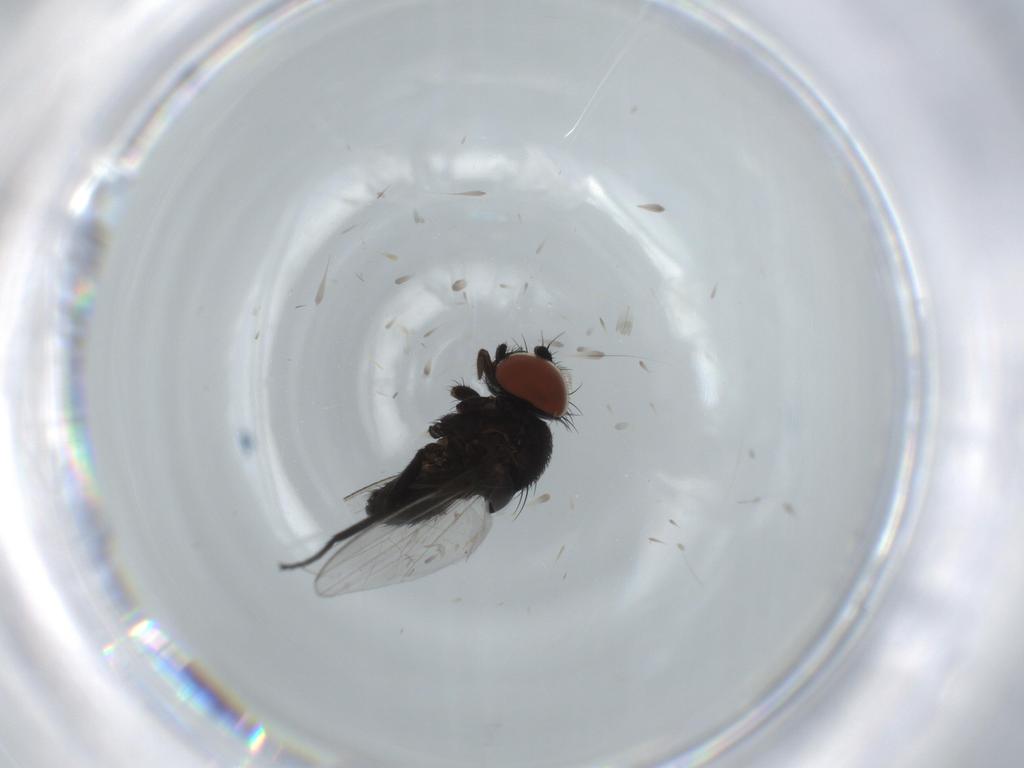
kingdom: Animalia
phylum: Arthropoda
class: Insecta
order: Diptera
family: Milichiidae
